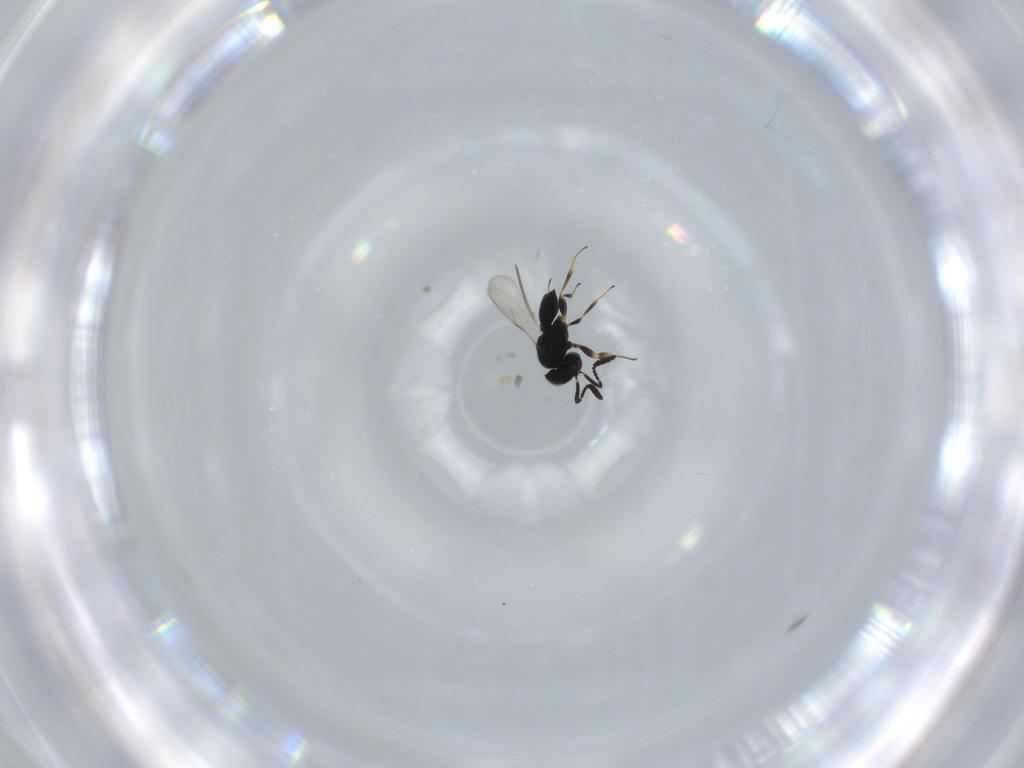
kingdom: Animalia
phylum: Arthropoda
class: Insecta
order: Hymenoptera
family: Scelionidae
